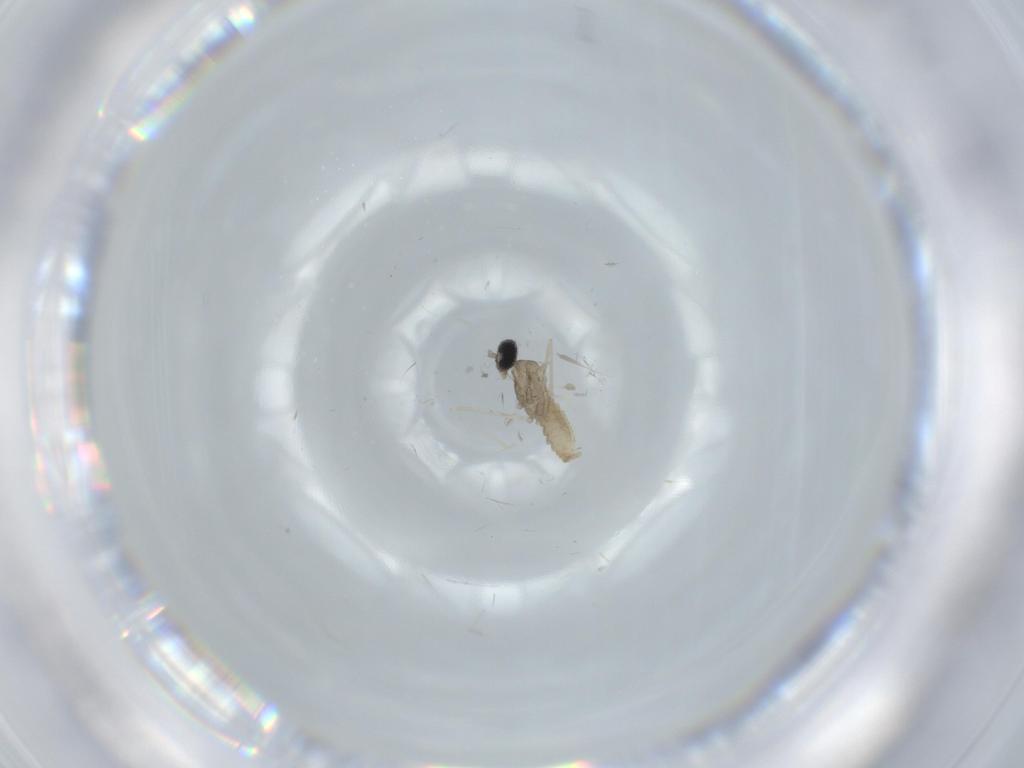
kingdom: Animalia
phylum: Arthropoda
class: Insecta
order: Diptera
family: Cecidomyiidae
